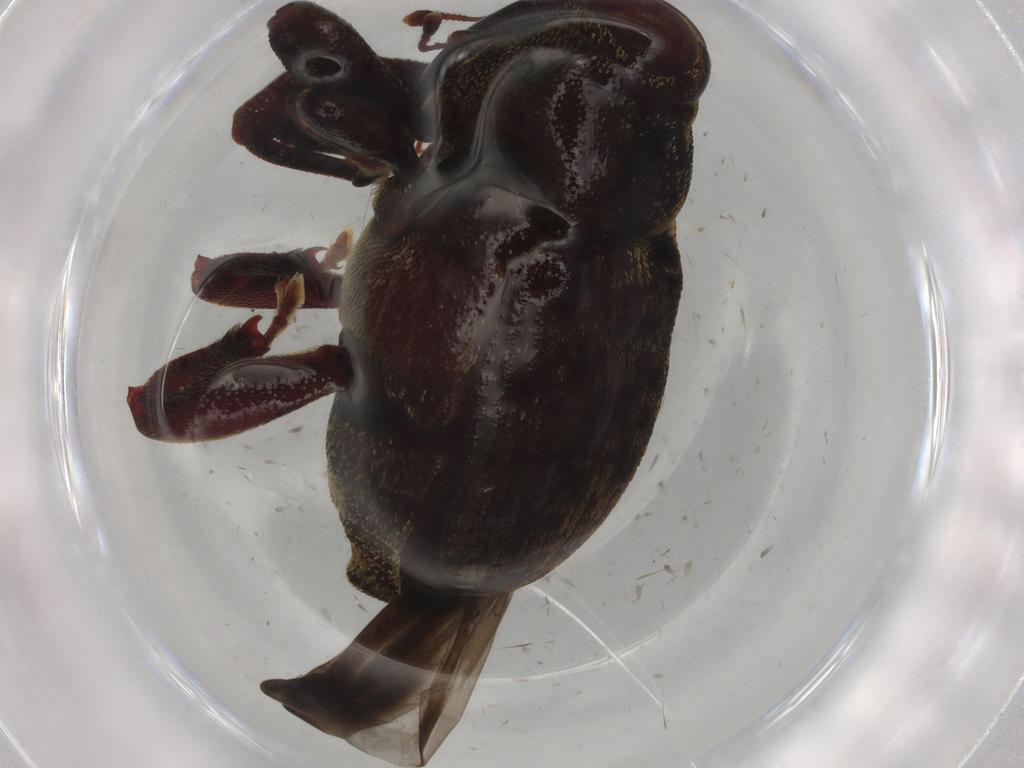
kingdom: Animalia
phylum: Arthropoda
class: Insecta
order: Coleoptera
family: Curculionidae
